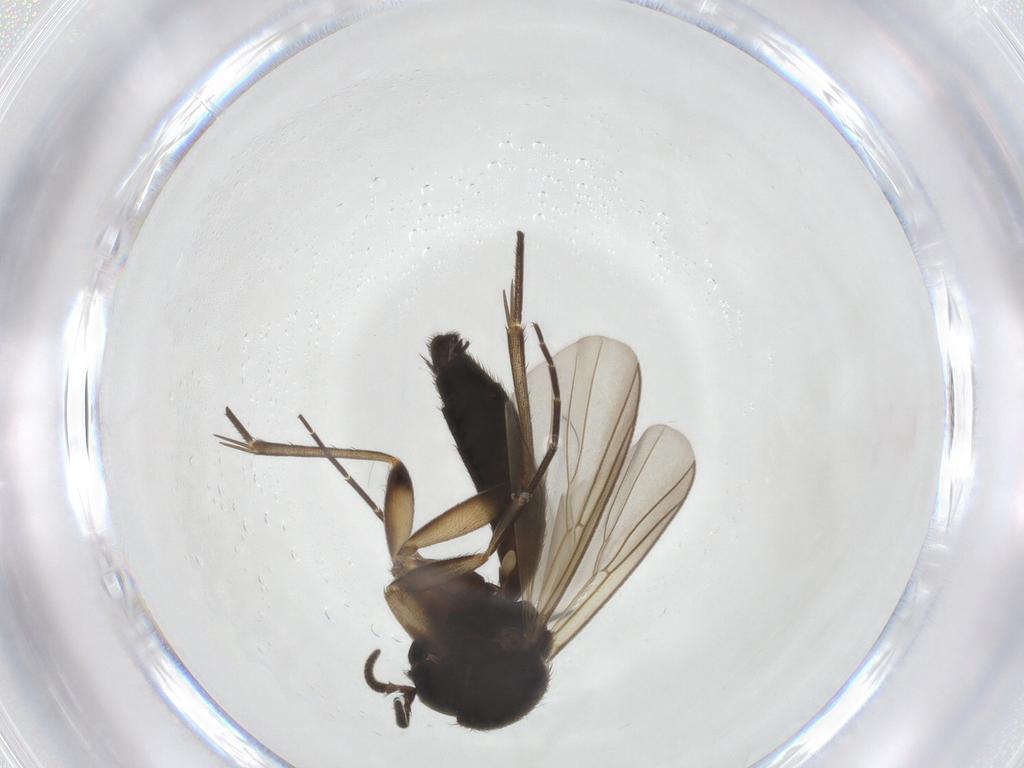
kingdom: Animalia
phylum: Arthropoda
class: Insecta
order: Diptera
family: Mycetophilidae
